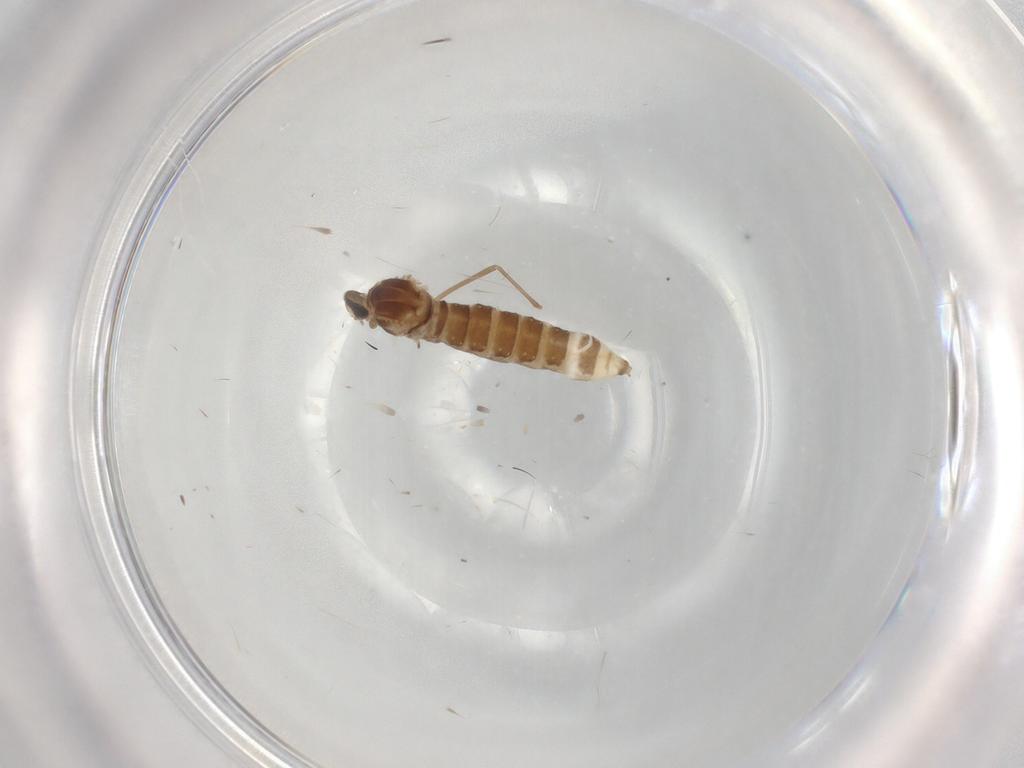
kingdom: Animalia
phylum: Arthropoda
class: Insecta
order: Diptera
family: Cecidomyiidae
